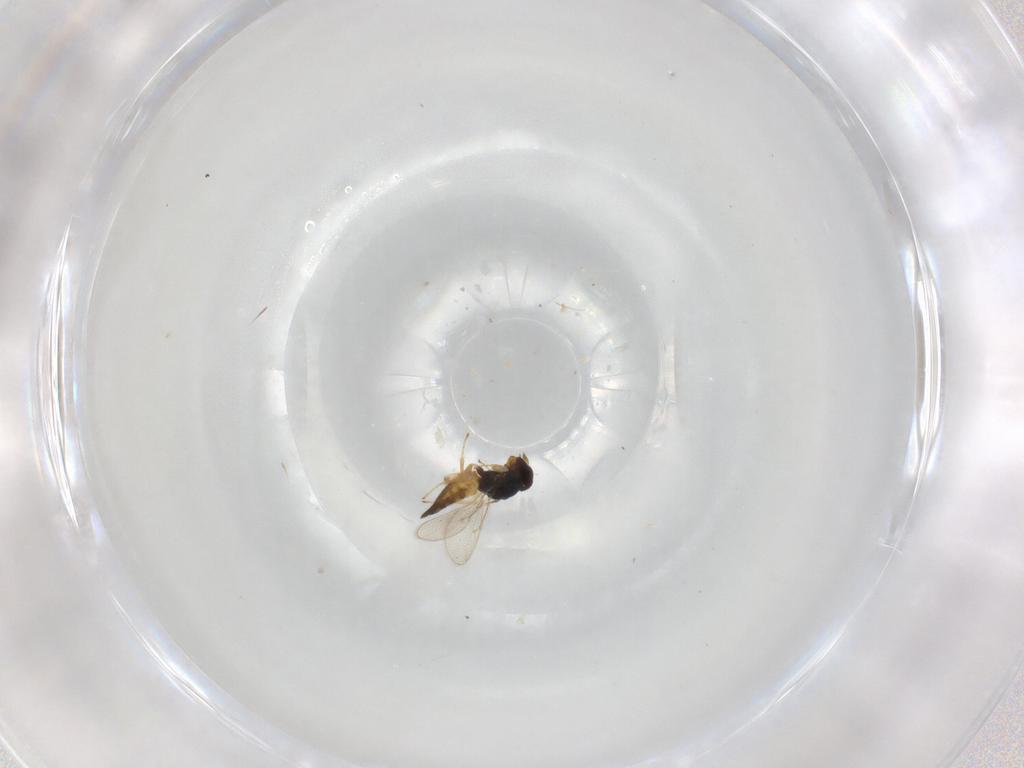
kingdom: Animalia
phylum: Arthropoda
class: Insecta
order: Hymenoptera
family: Eulophidae
